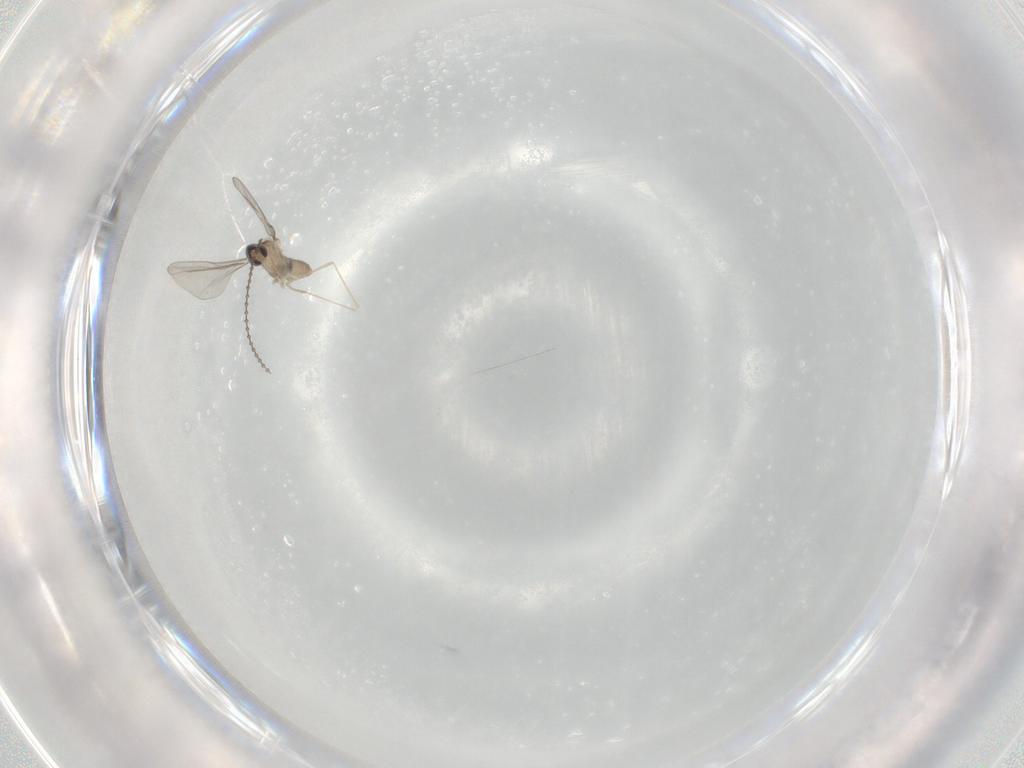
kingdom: Animalia
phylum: Arthropoda
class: Insecta
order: Diptera
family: Cecidomyiidae
